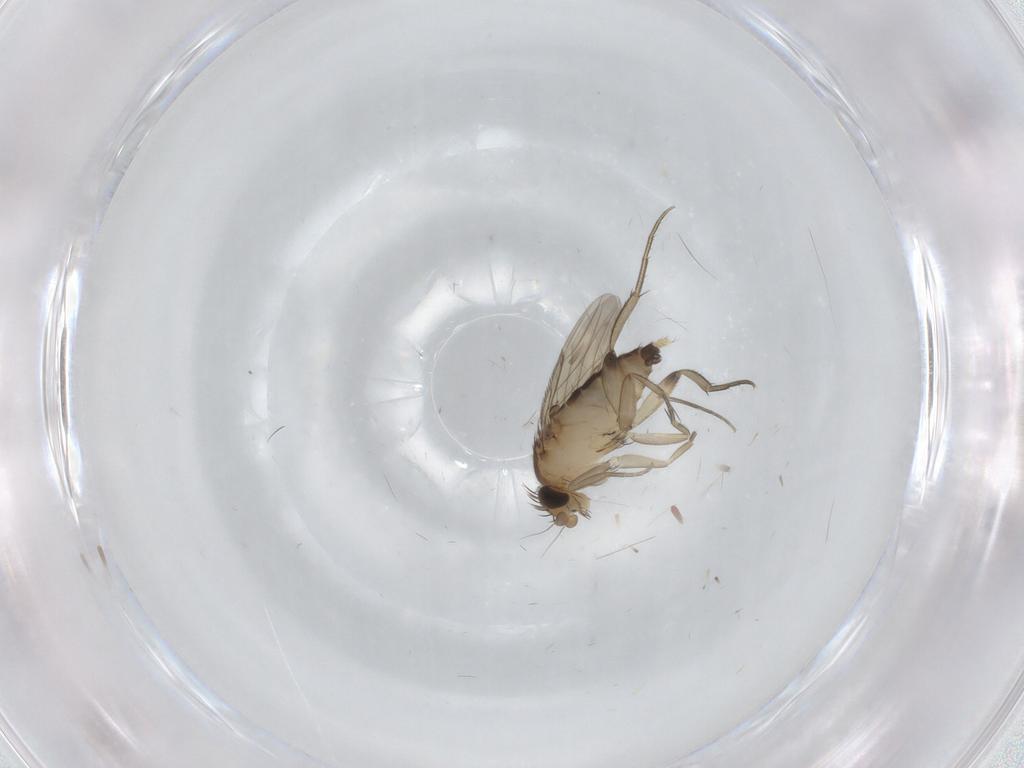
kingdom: Animalia
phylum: Arthropoda
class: Insecta
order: Diptera
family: Phoridae
